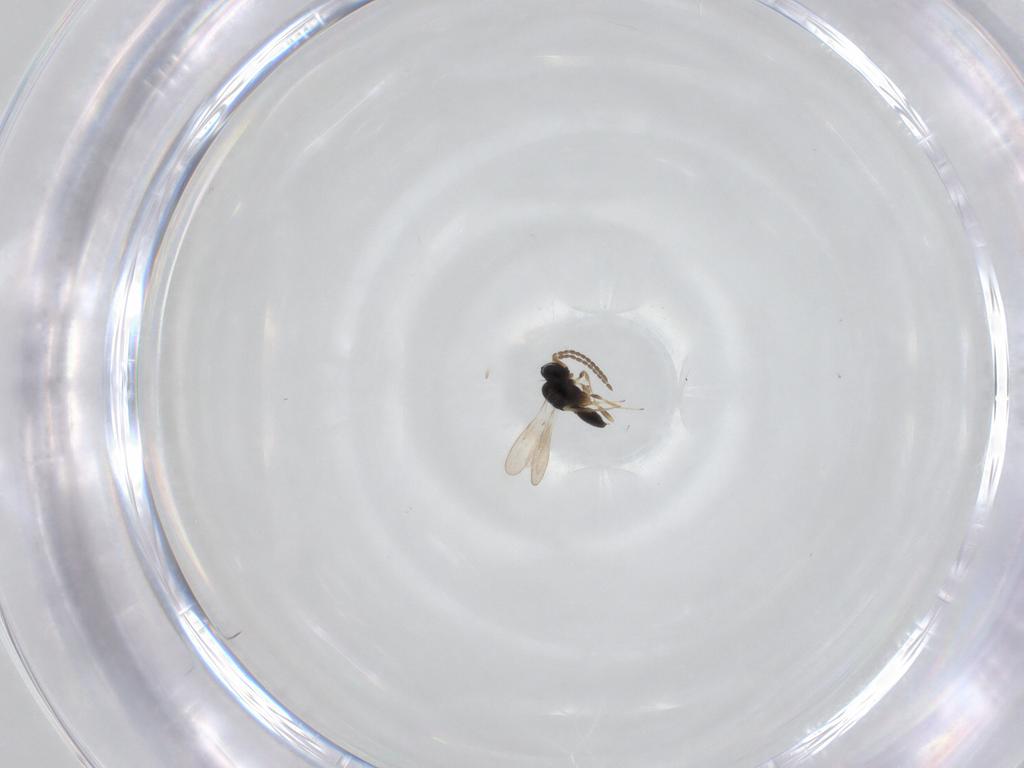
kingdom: Animalia
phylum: Arthropoda
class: Insecta
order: Hymenoptera
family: Scelionidae
